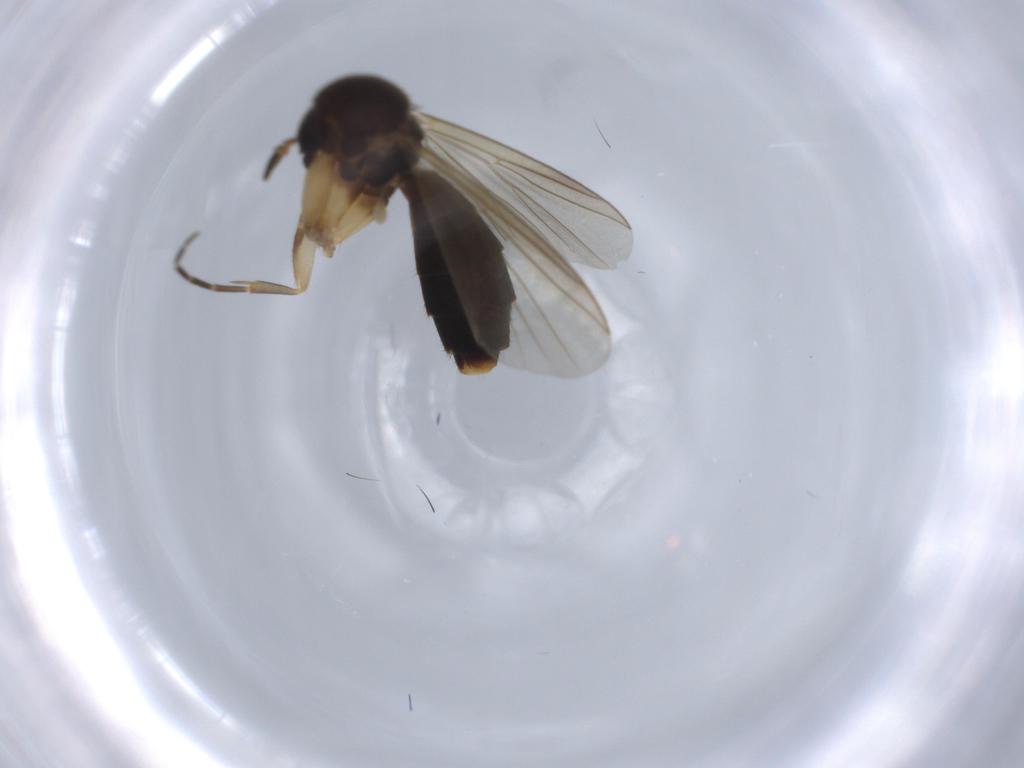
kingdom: Animalia
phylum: Arthropoda
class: Insecta
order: Diptera
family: Mycetophilidae
